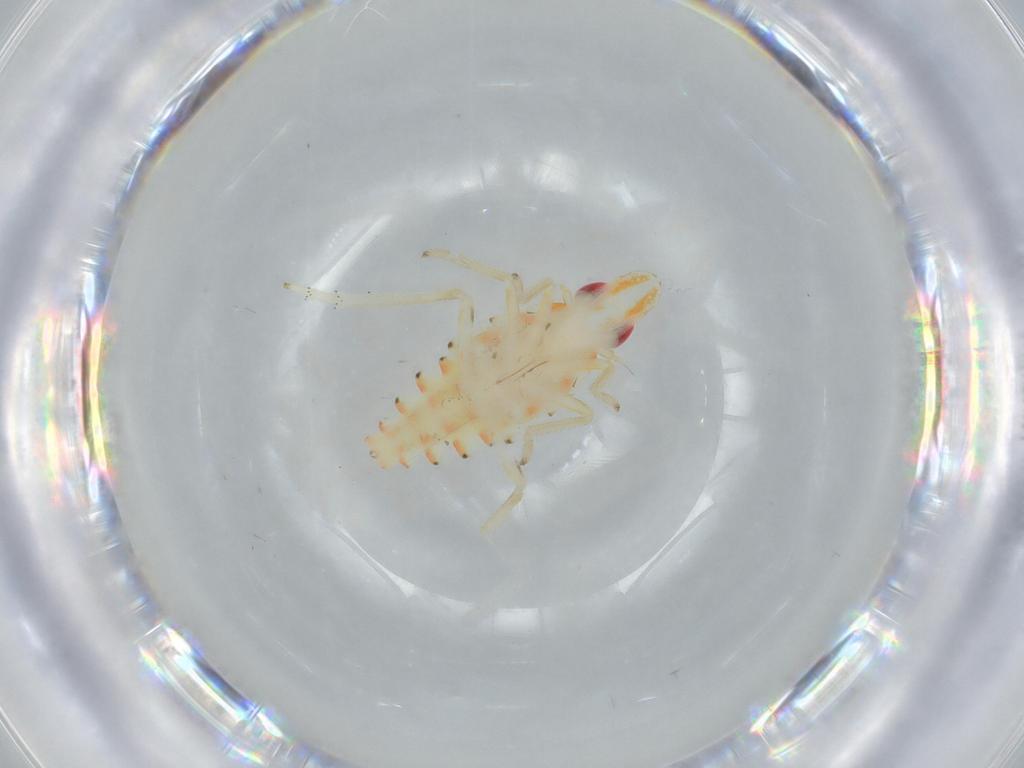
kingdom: Animalia
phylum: Arthropoda
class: Insecta
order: Hemiptera
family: Tropiduchidae
